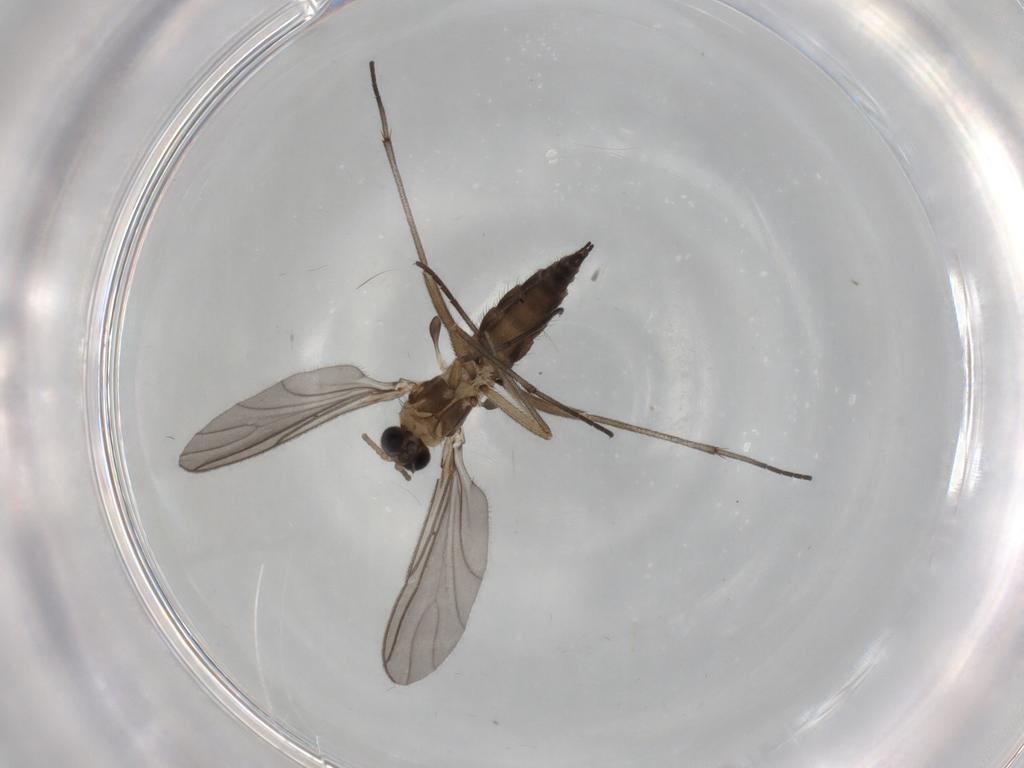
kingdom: Animalia
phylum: Arthropoda
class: Insecta
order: Diptera
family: Sciaridae
